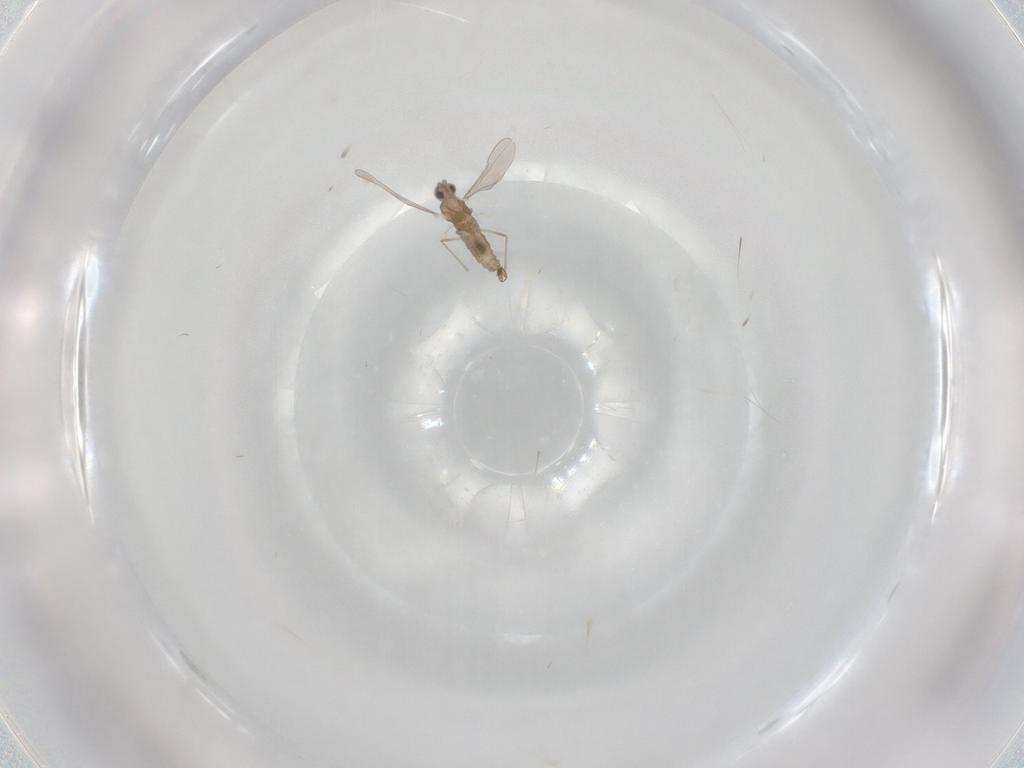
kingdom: Animalia
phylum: Arthropoda
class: Insecta
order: Diptera
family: Cecidomyiidae
